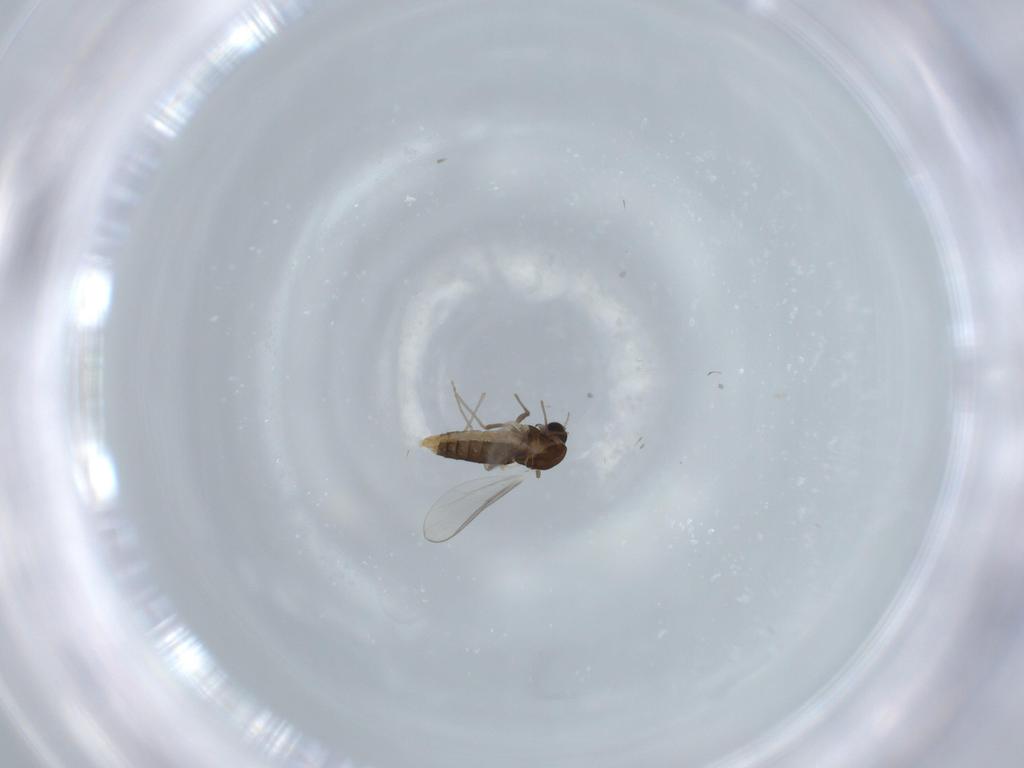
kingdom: Animalia
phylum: Arthropoda
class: Insecta
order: Diptera
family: Chironomidae
